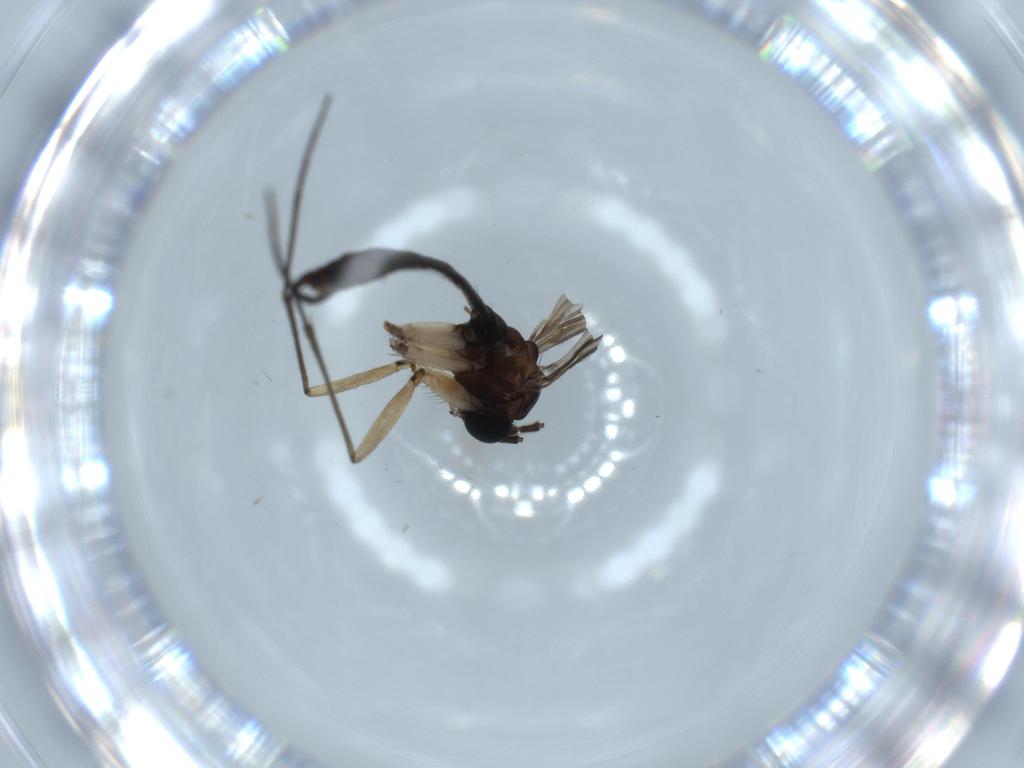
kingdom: Animalia
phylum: Arthropoda
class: Insecta
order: Diptera
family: Sciaridae
